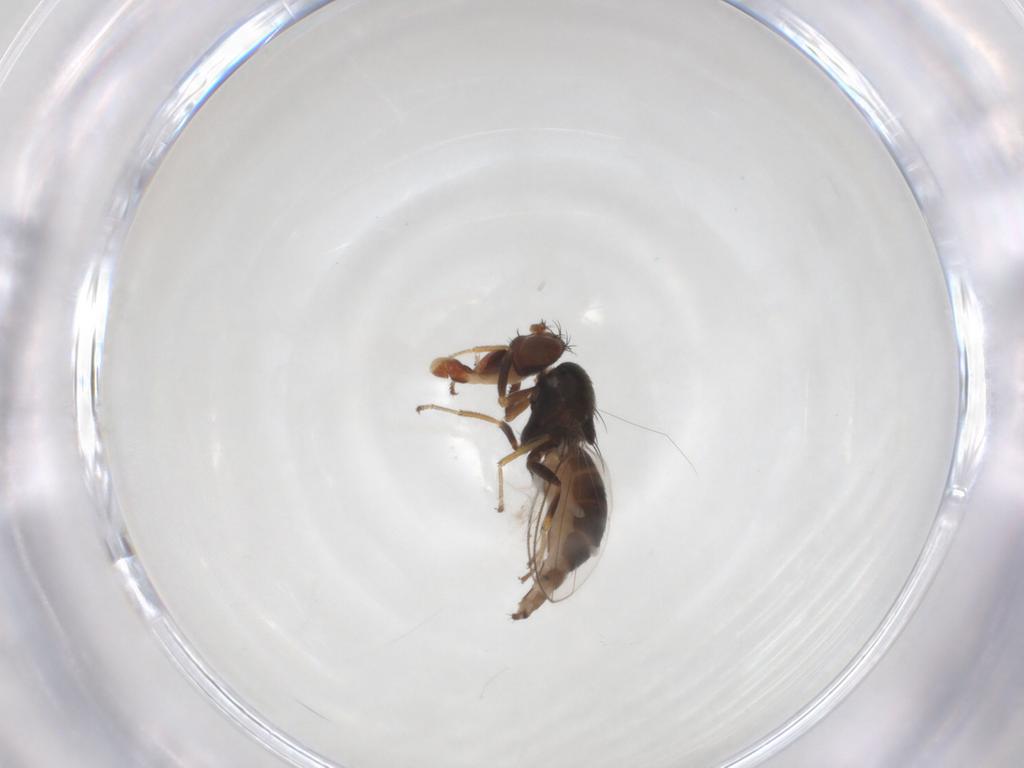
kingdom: Animalia
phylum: Arthropoda
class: Insecta
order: Diptera
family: Ephydridae
